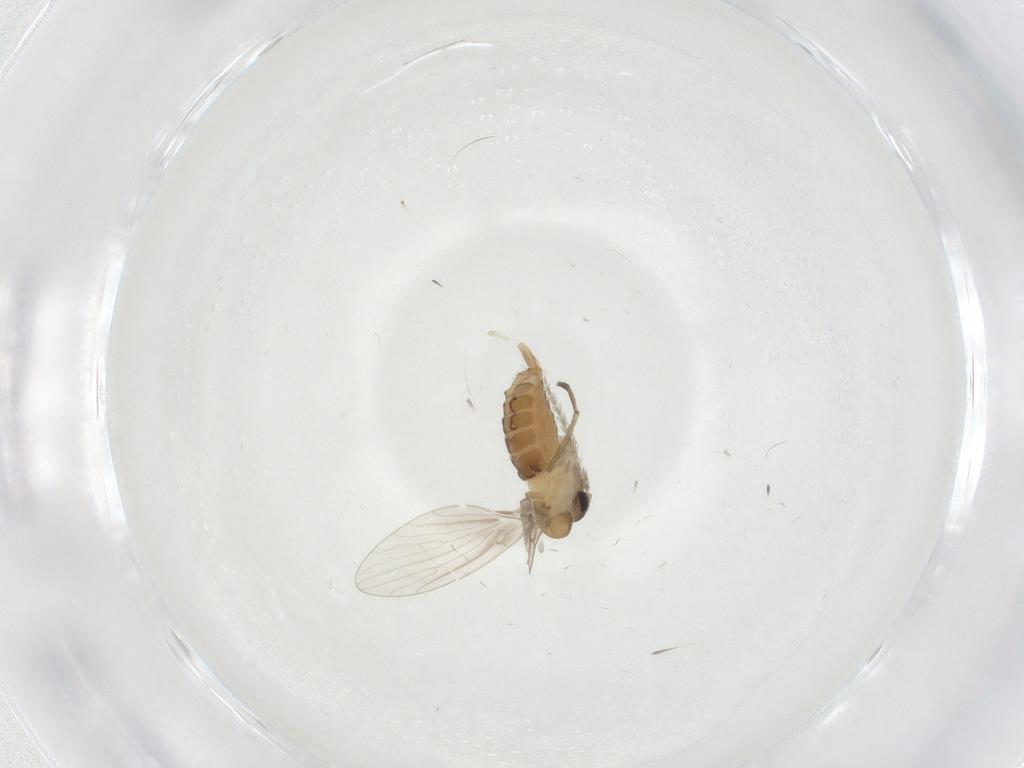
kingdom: Animalia
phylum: Arthropoda
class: Insecta
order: Diptera
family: Psychodidae
